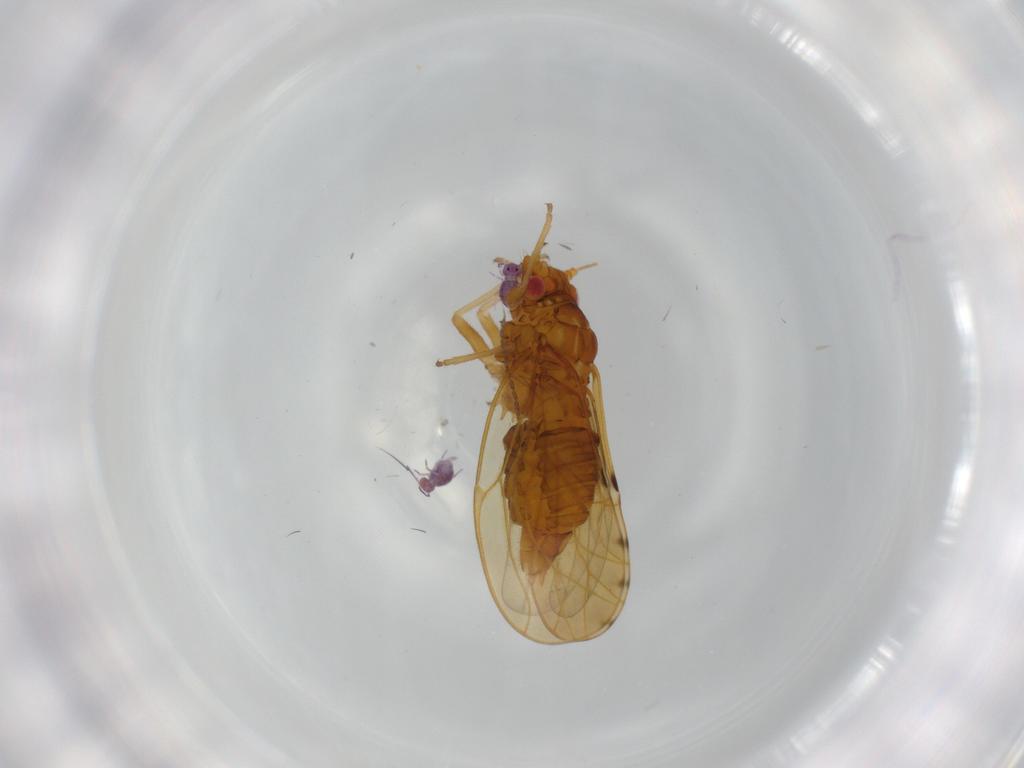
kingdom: Animalia
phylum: Arthropoda
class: Collembola
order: Symphypleona
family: Sminthurididae
